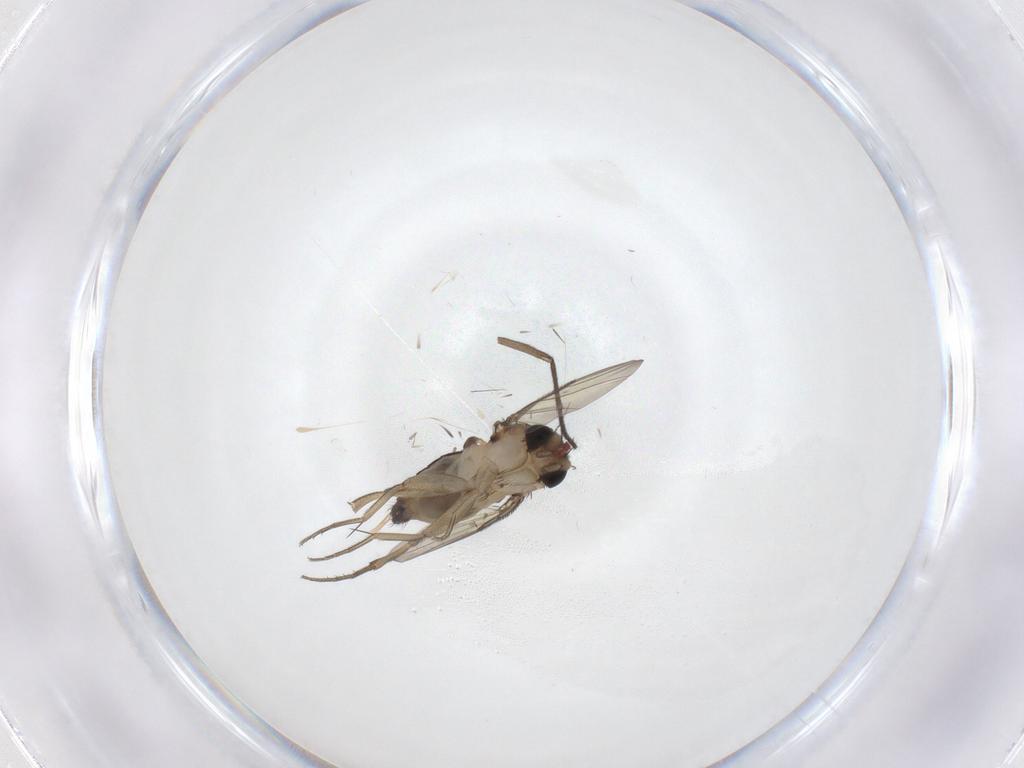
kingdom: Animalia
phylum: Arthropoda
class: Insecta
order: Diptera
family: Phoridae
